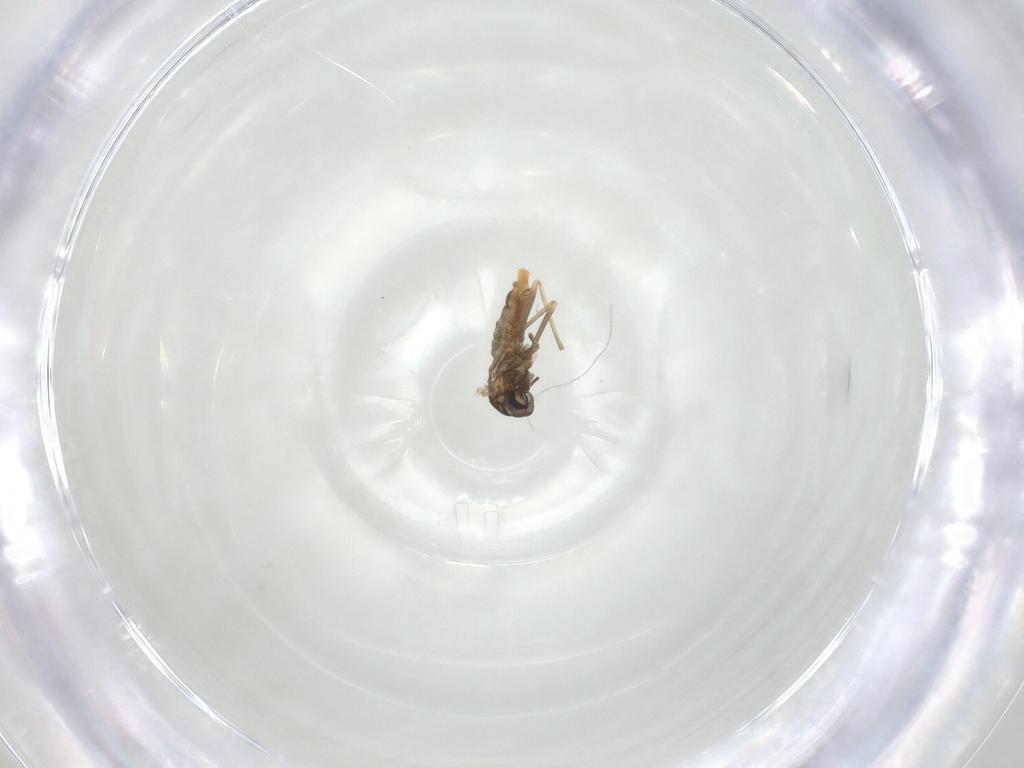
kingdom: Animalia
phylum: Arthropoda
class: Insecta
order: Diptera
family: Cecidomyiidae
